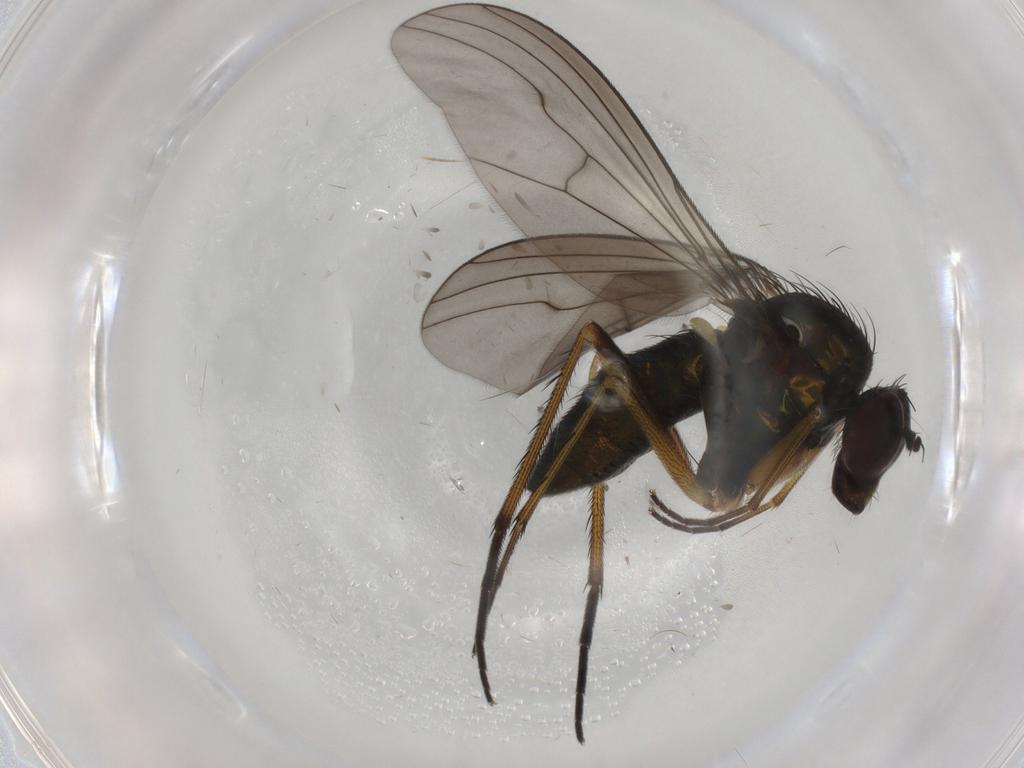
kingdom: Animalia
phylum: Arthropoda
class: Insecta
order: Diptera
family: Dolichopodidae
